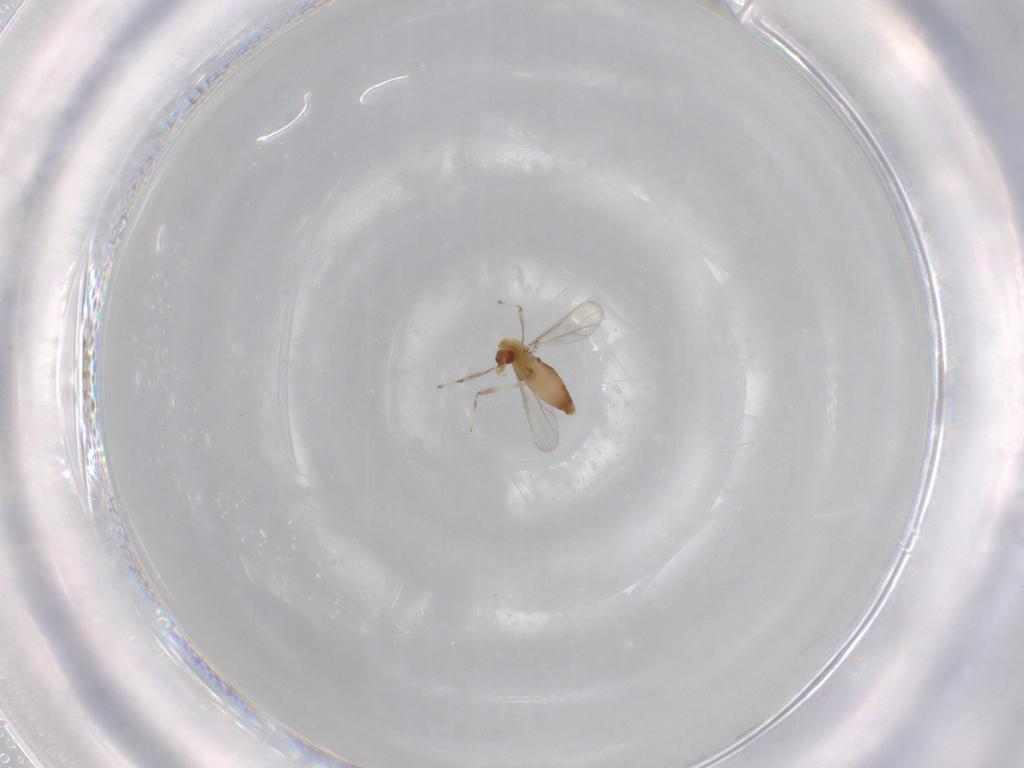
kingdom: Animalia
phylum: Arthropoda
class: Insecta
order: Diptera
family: Chironomidae
